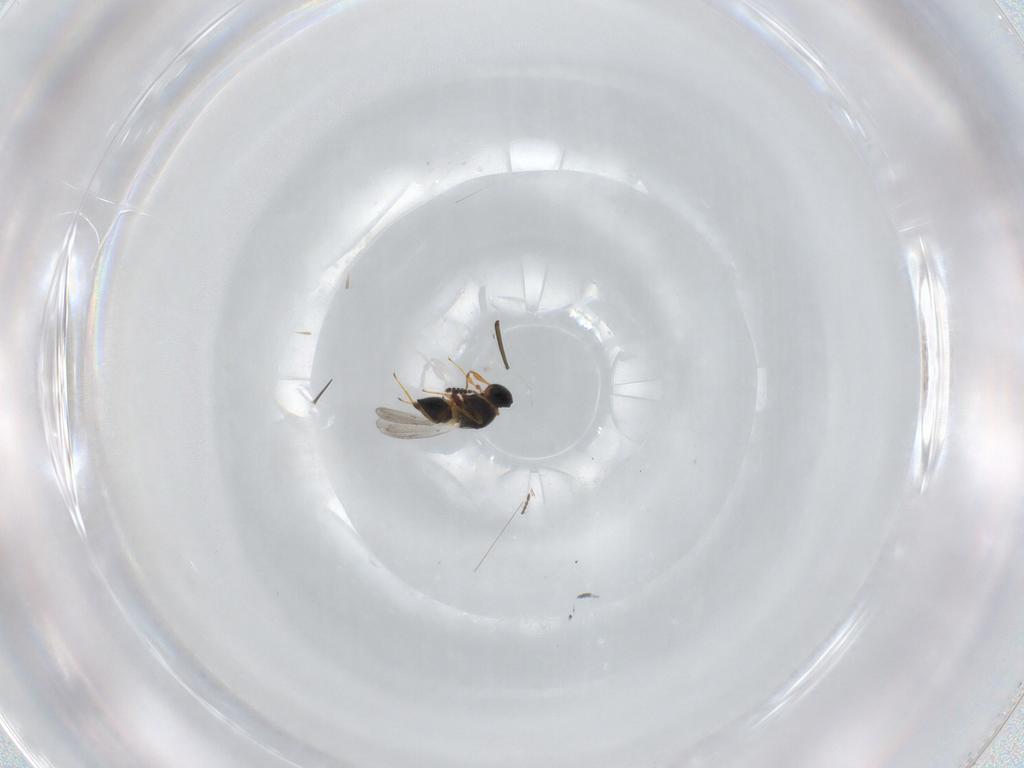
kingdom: Animalia
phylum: Arthropoda
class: Insecta
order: Hymenoptera
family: Platygastridae
